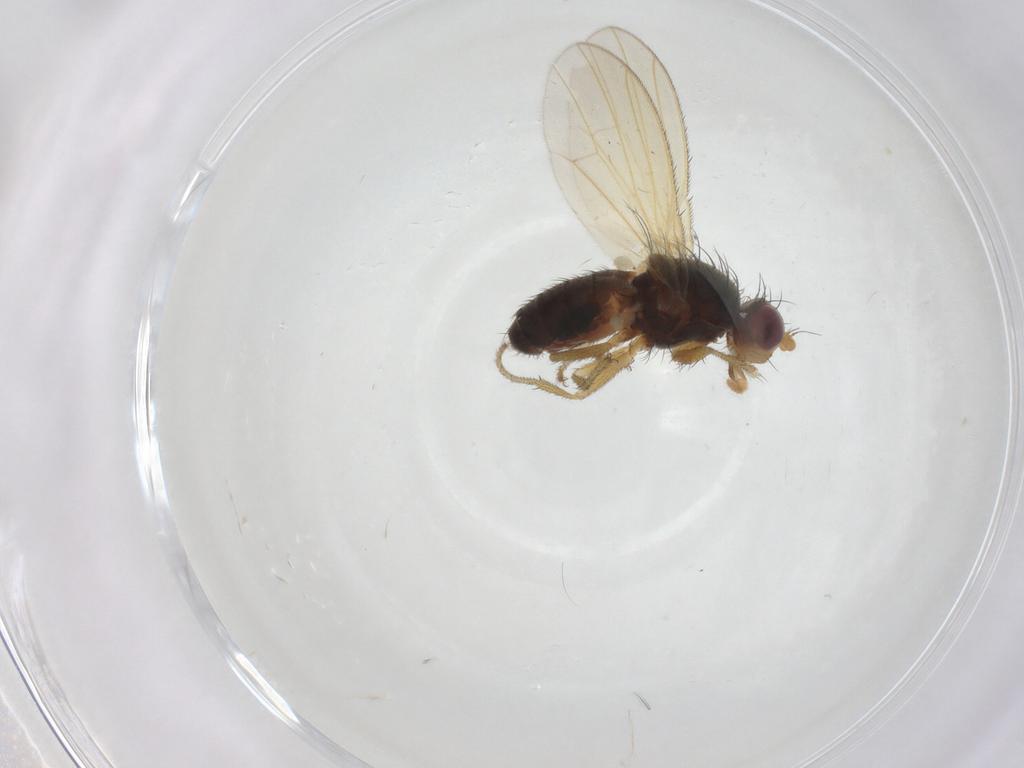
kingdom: Animalia
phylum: Arthropoda
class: Insecta
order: Diptera
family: Heleomyzidae
